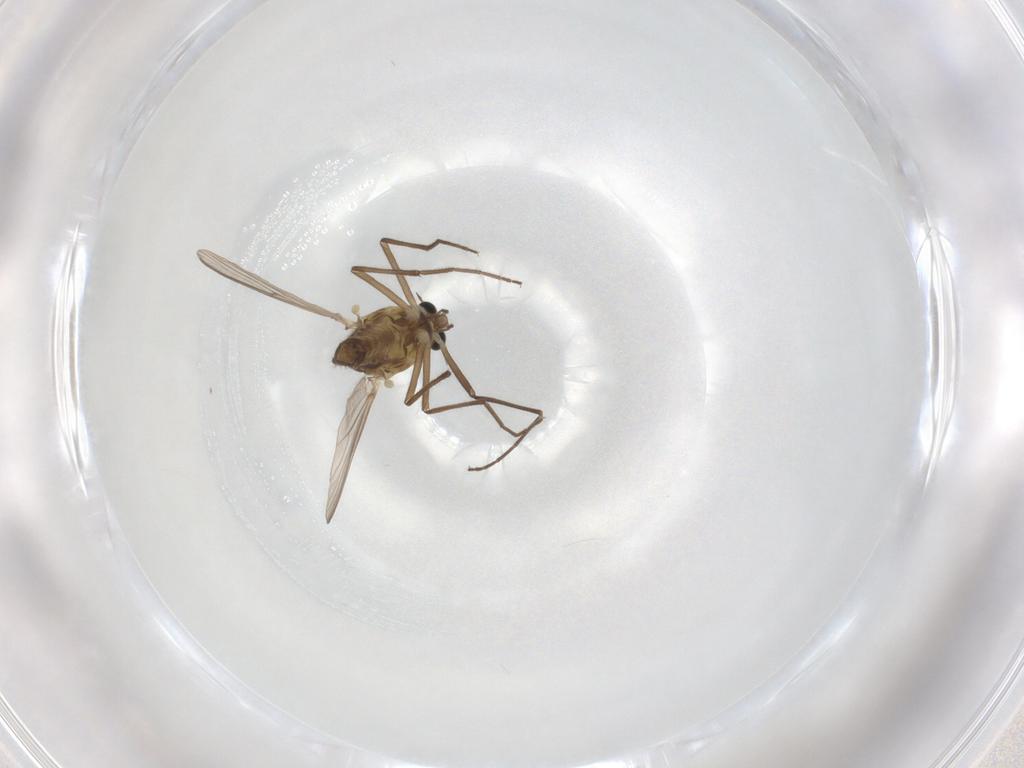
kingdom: Animalia
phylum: Arthropoda
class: Insecta
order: Diptera
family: Chironomidae
